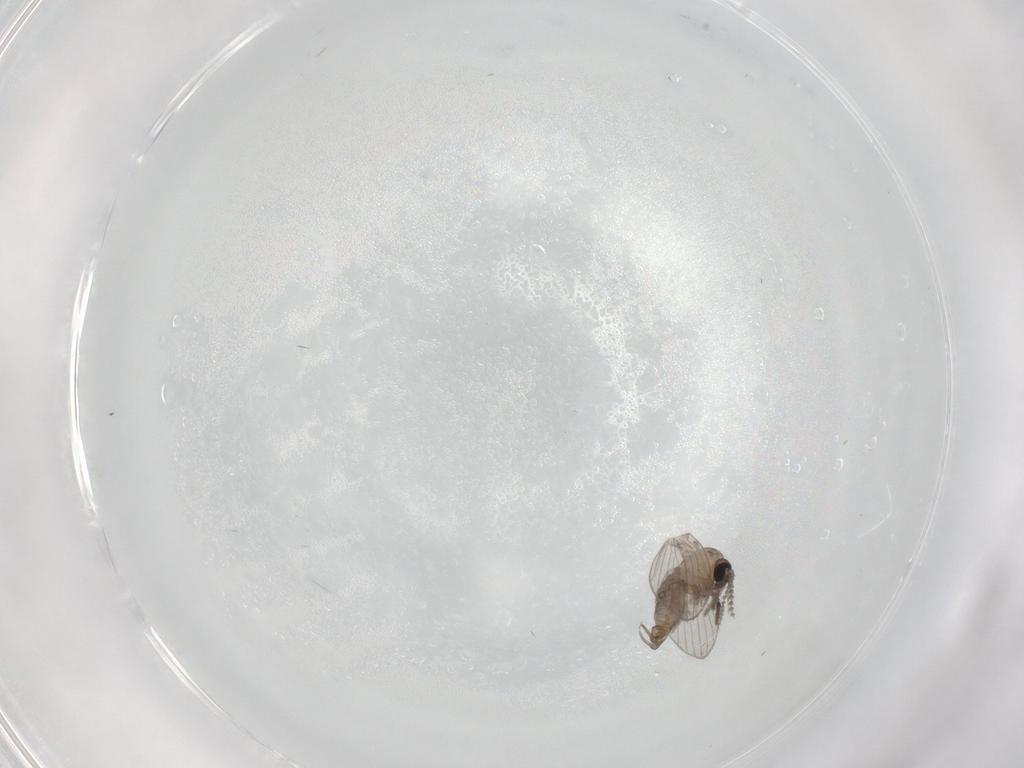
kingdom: Animalia
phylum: Arthropoda
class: Insecta
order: Diptera
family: Psychodidae
